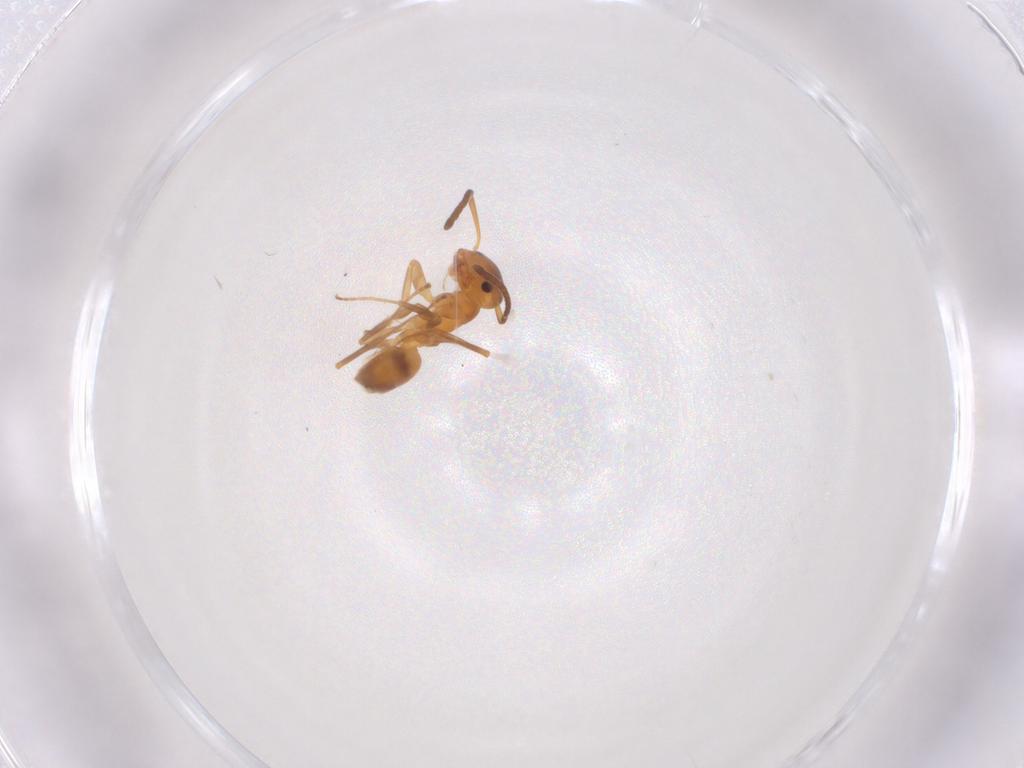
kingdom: Animalia
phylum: Arthropoda
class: Insecta
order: Hymenoptera
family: Formicidae
